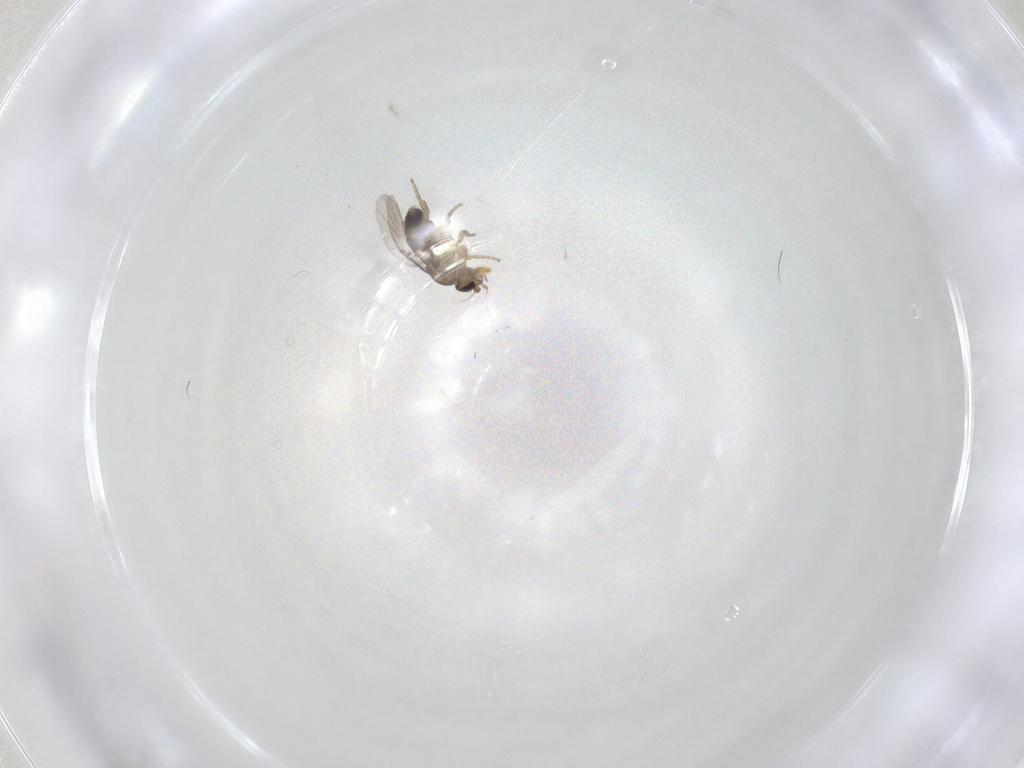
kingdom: Animalia
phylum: Arthropoda
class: Insecta
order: Diptera
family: Phoridae
